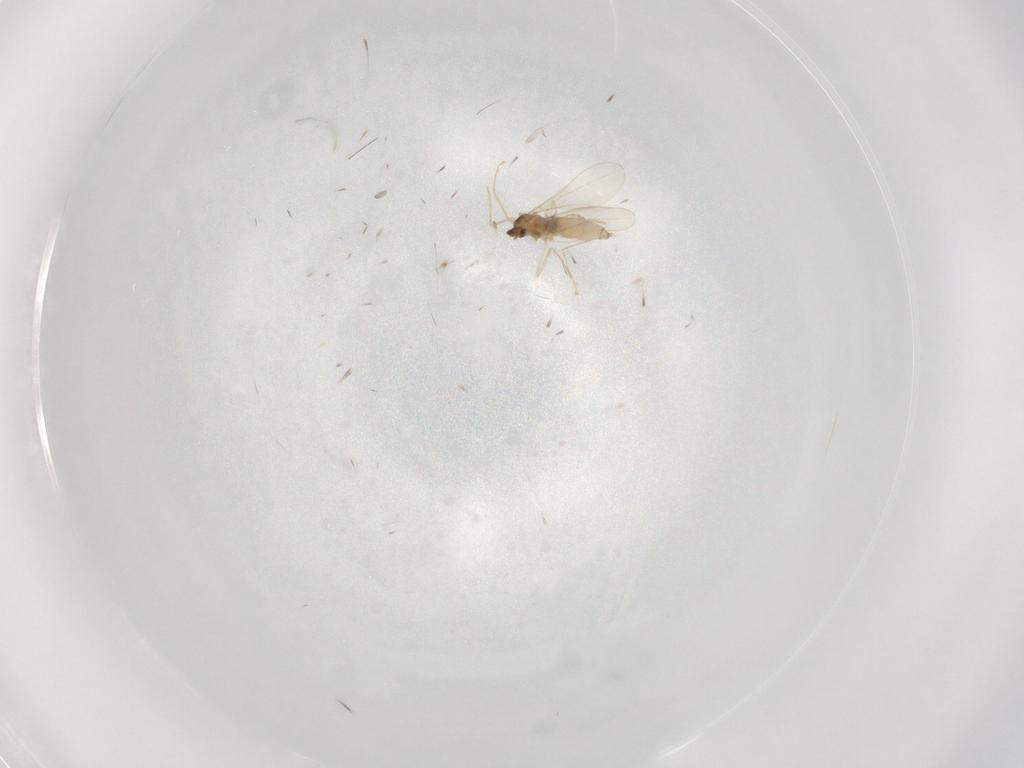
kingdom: Animalia
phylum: Arthropoda
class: Insecta
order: Diptera
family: Cecidomyiidae
